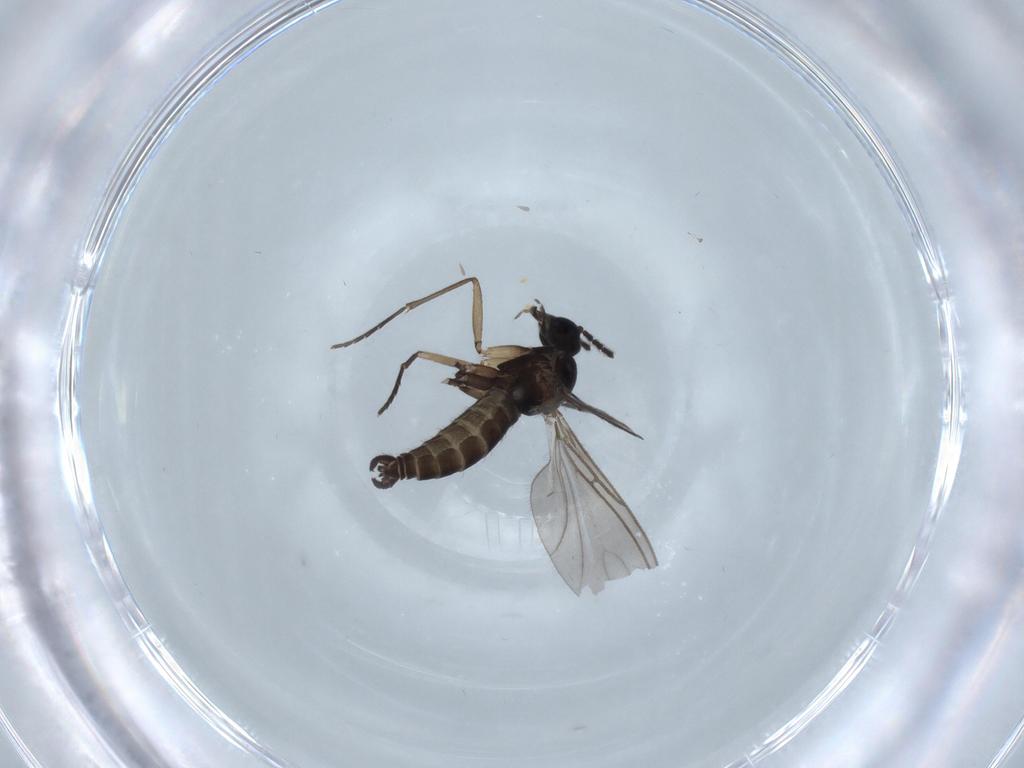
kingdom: Animalia
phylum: Arthropoda
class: Insecta
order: Diptera
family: Sciaridae
